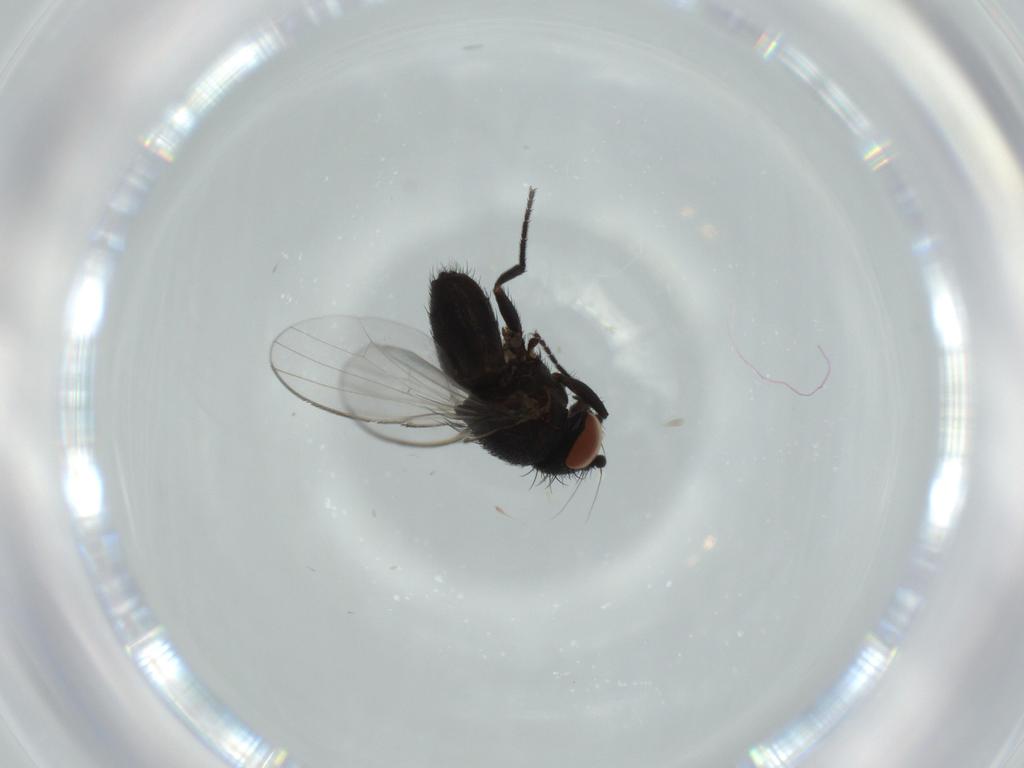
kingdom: Animalia
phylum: Arthropoda
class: Insecta
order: Diptera
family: Milichiidae
